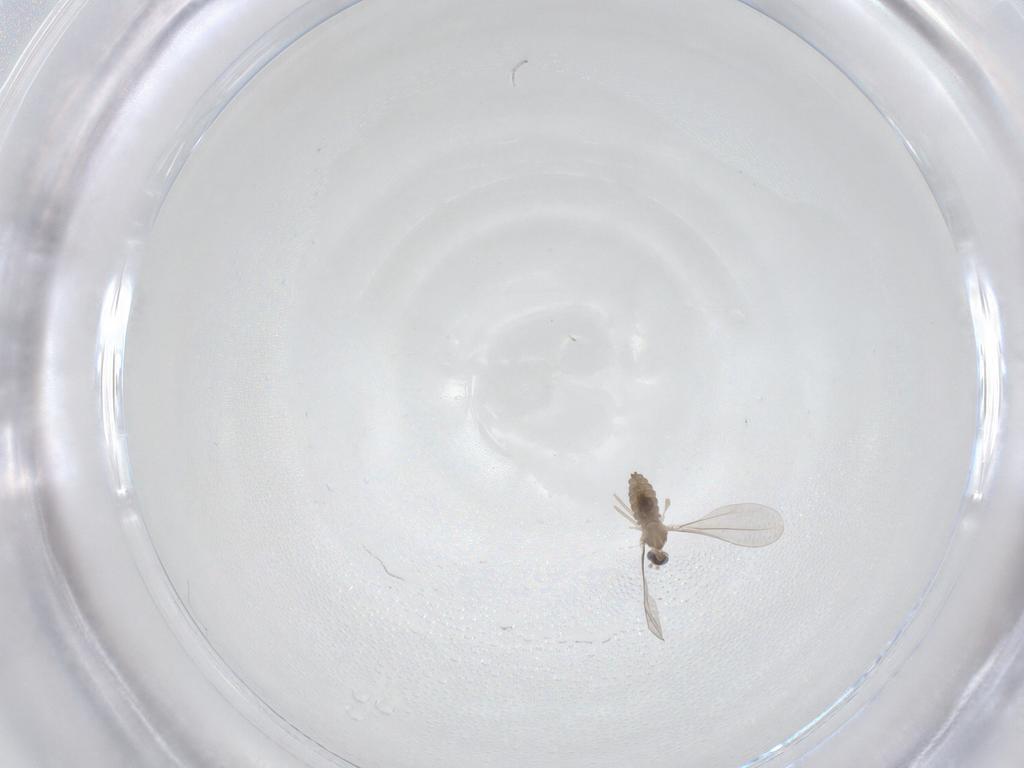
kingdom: Animalia
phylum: Arthropoda
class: Insecta
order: Diptera
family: Cecidomyiidae
